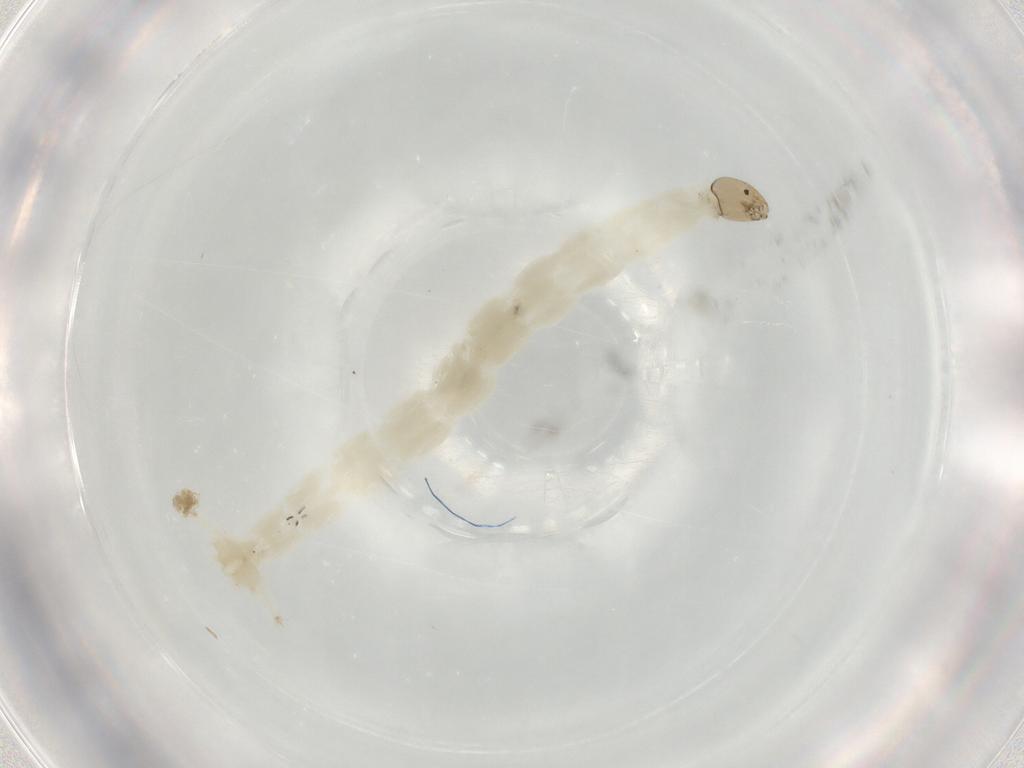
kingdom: Animalia
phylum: Arthropoda
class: Insecta
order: Diptera
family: Chironomidae
